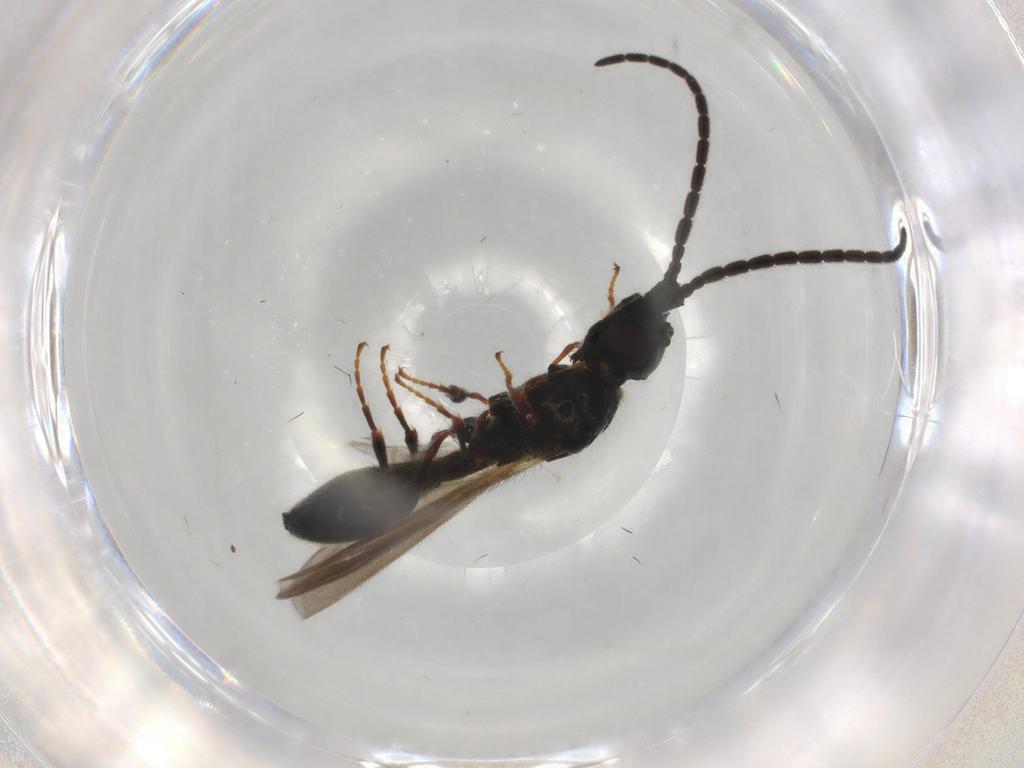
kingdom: Animalia
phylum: Arthropoda
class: Insecta
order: Hymenoptera
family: Diapriidae
